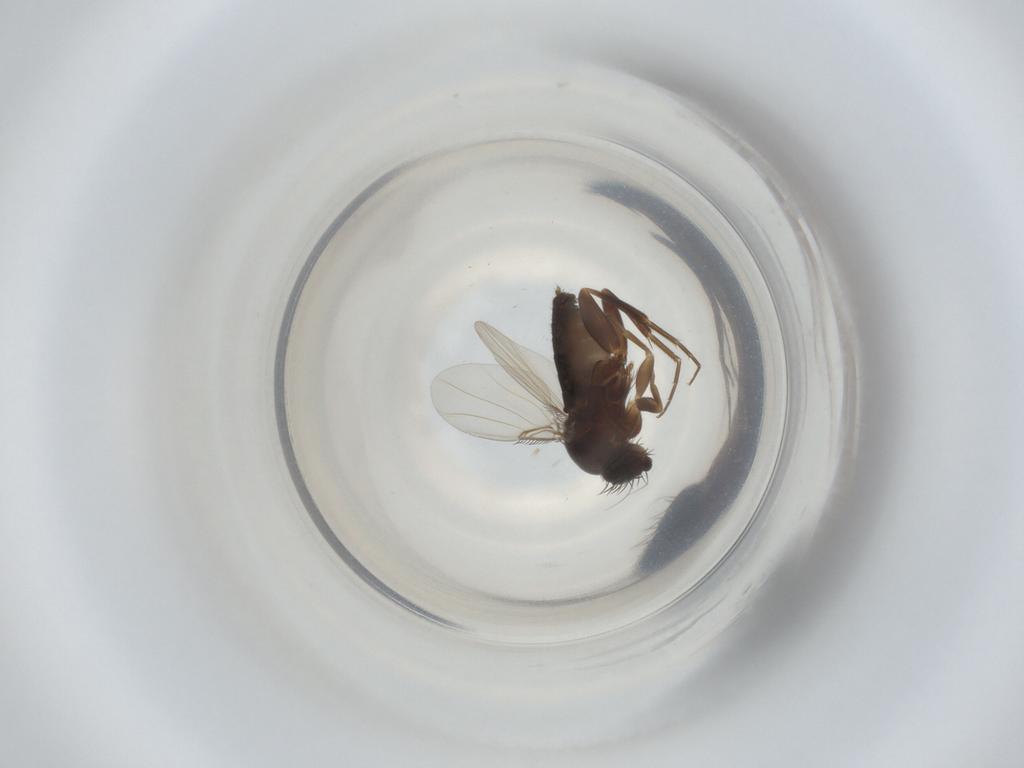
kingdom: Animalia
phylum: Arthropoda
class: Insecta
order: Diptera
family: Phoridae
